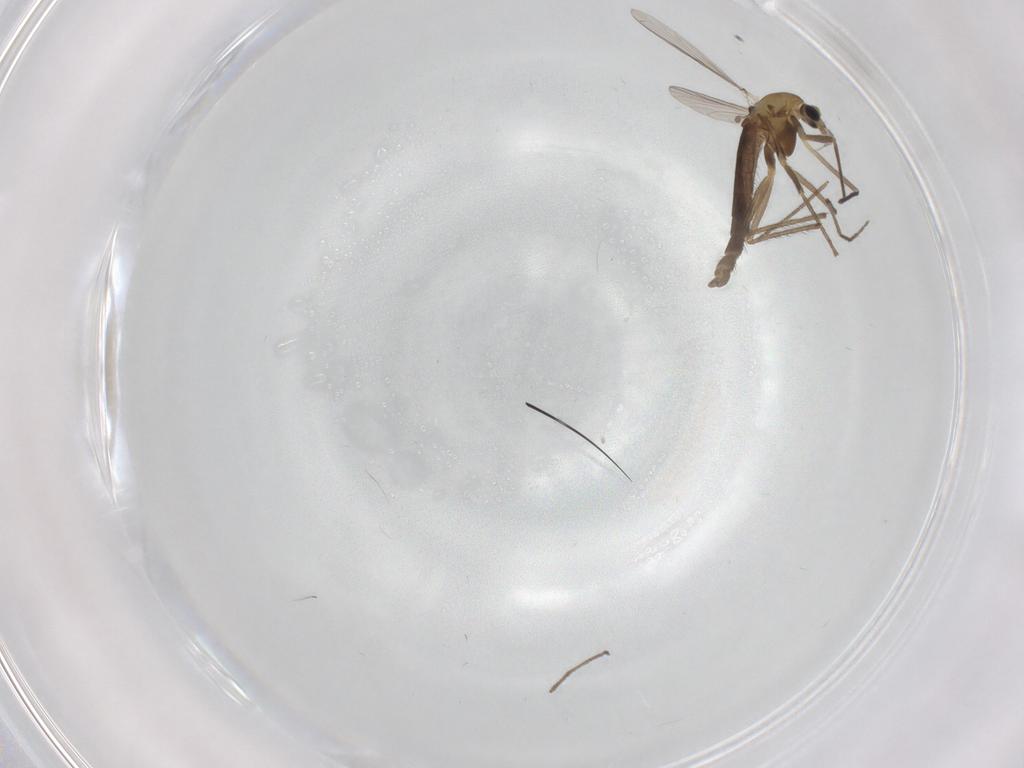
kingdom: Animalia
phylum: Arthropoda
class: Insecta
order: Diptera
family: Chironomidae
